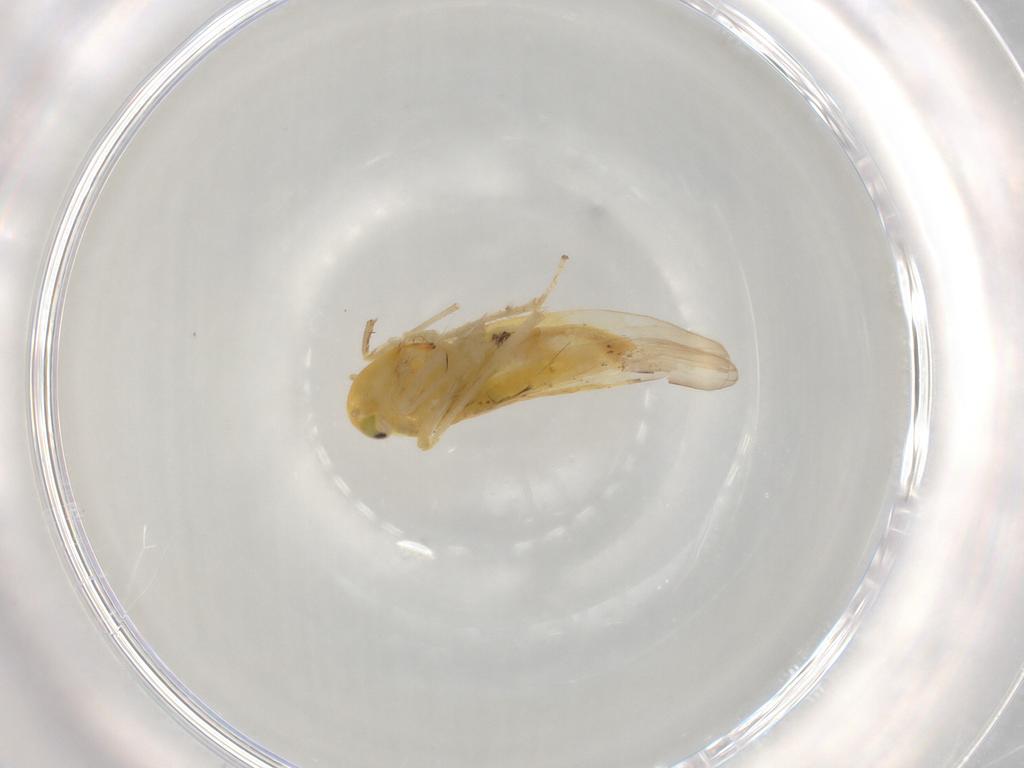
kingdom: Animalia
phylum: Arthropoda
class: Insecta
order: Hemiptera
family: Cicadellidae
